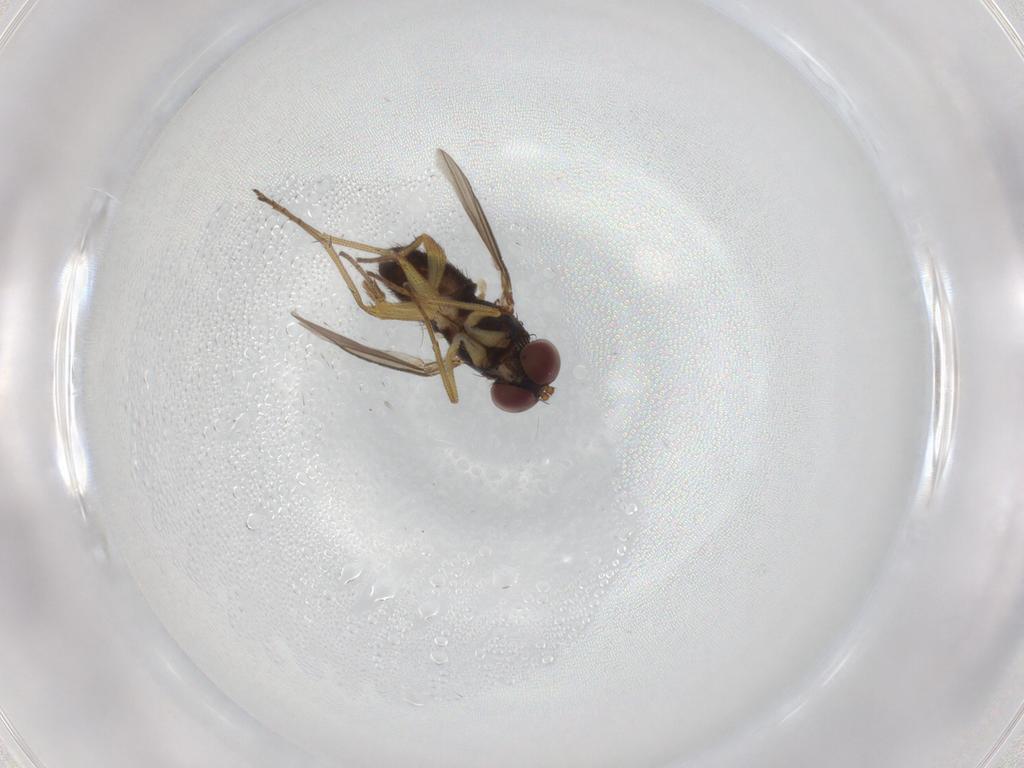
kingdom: Animalia
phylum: Arthropoda
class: Insecta
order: Diptera
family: Dolichopodidae
